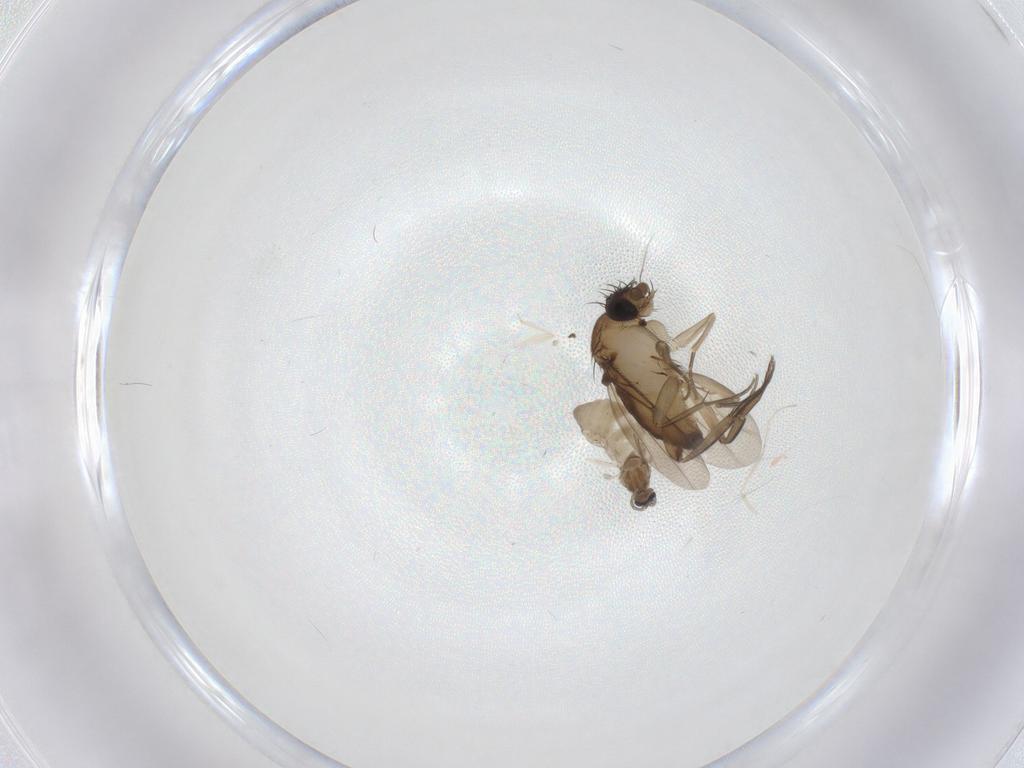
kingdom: Animalia
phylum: Arthropoda
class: Insecta
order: Diptera
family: Phoridae
